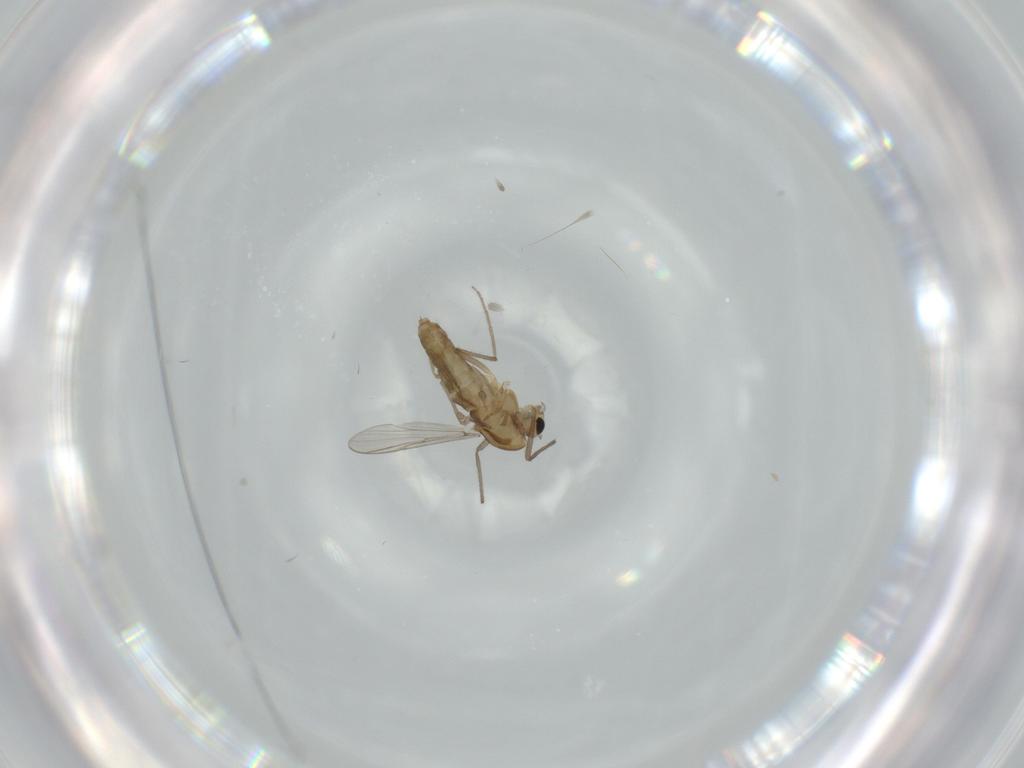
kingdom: Animalia
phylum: Arthropoda
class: Insecta
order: Diptera
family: Chironomidae
